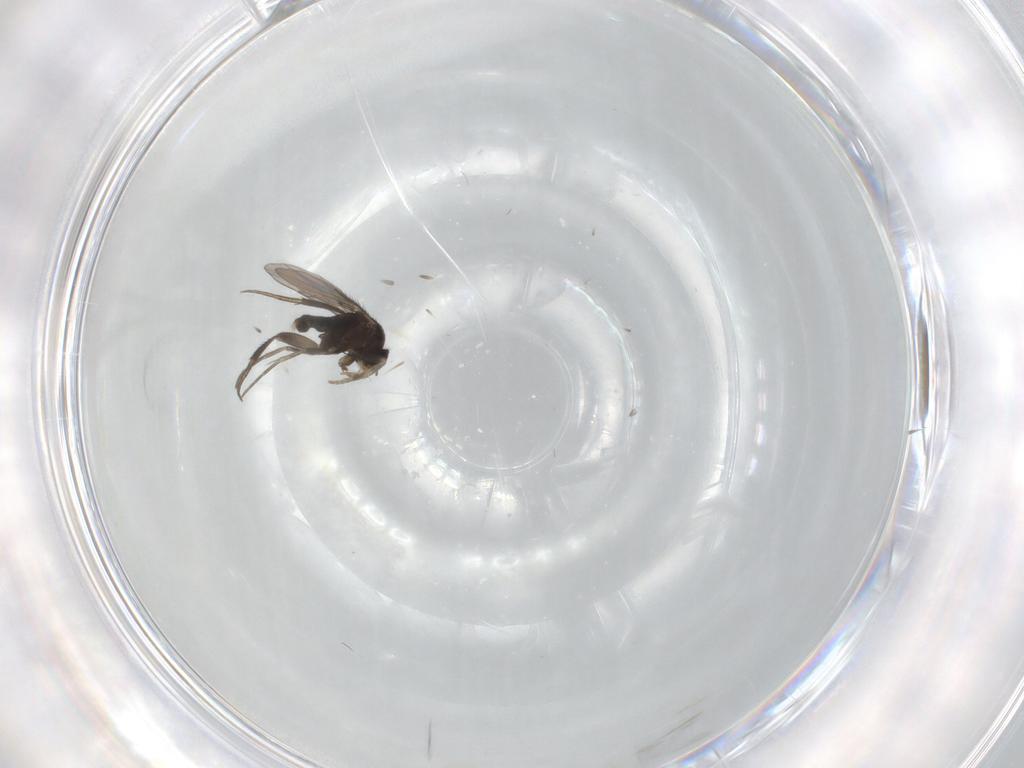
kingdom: Animalia
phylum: Arthropoda
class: Insecta
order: Diptera
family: Phoridae
